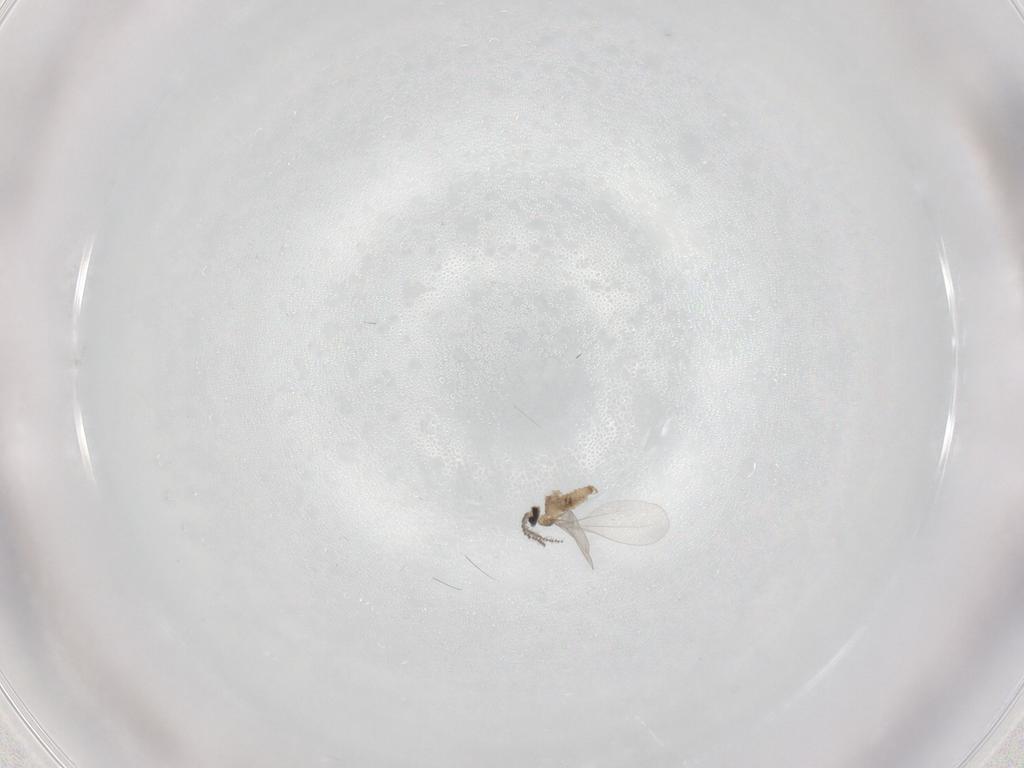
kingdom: Animalia
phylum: Arthropoda
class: Insecta
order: Diptera
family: Cecidomyiidae
